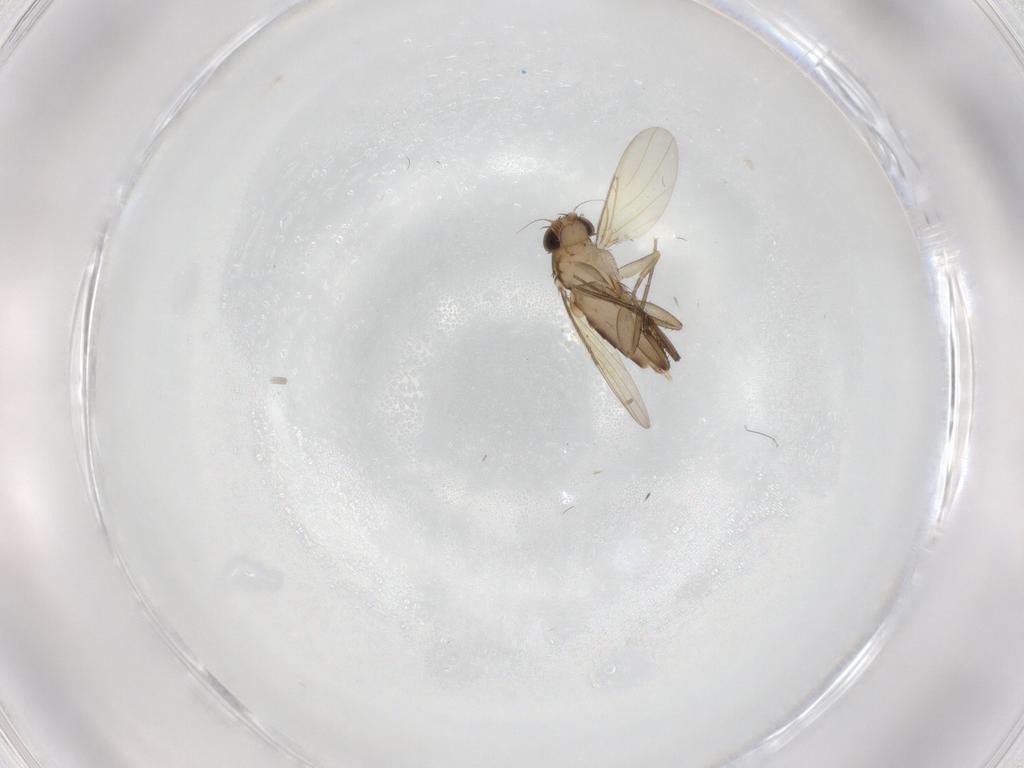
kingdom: Animalia
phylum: Arthropoda
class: Insecta
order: Diptera
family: Phoridae
